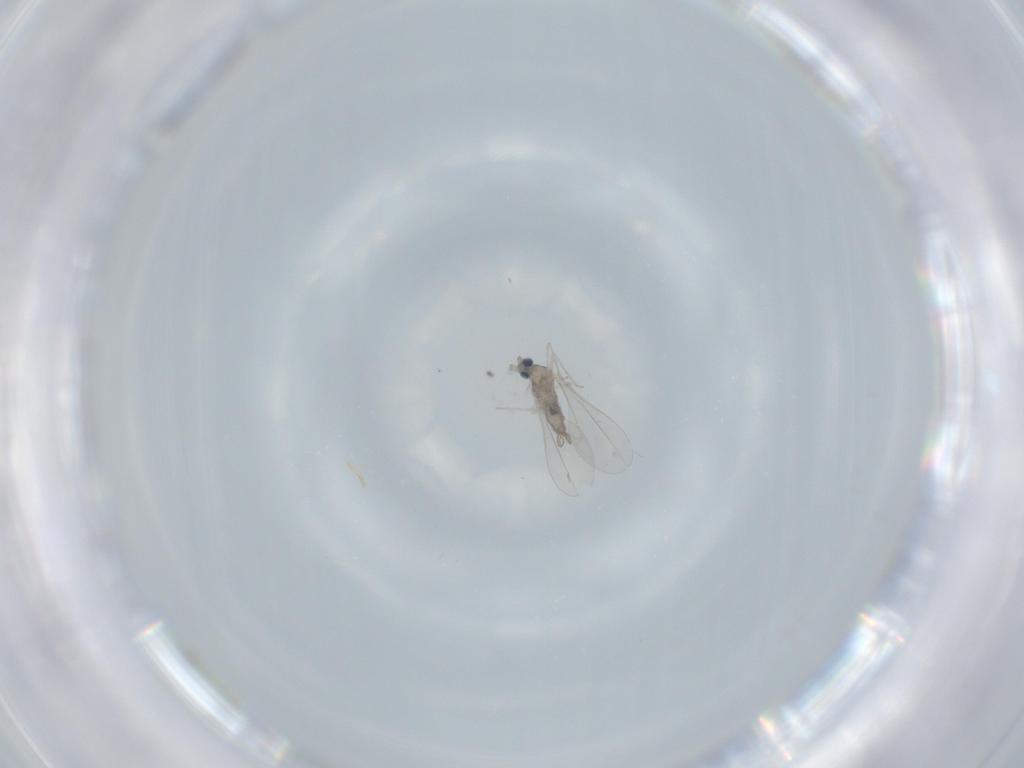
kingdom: Animalia
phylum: Arthropoda
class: Insecta
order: Diptera
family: Cecidomyiidae
